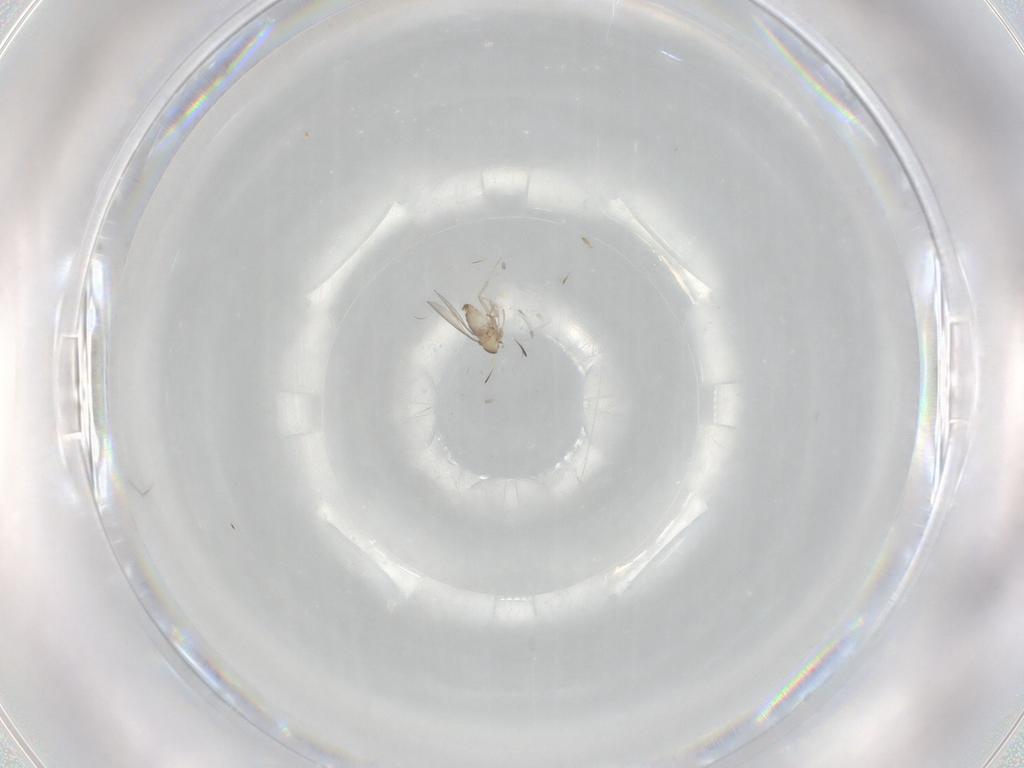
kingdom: Animalia
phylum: Arthropoda
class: Insecta
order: Diptera
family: Cecidomyiidae
